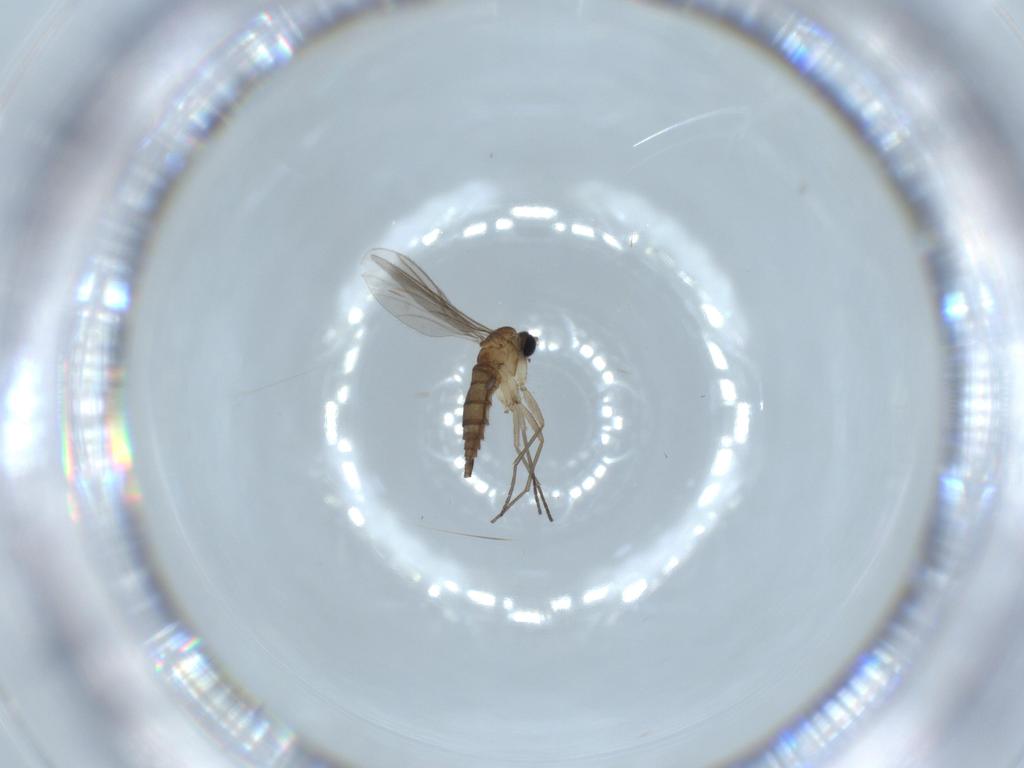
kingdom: Animalia
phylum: Arthropoda
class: Insecta
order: Diptera
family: Sciaridae
